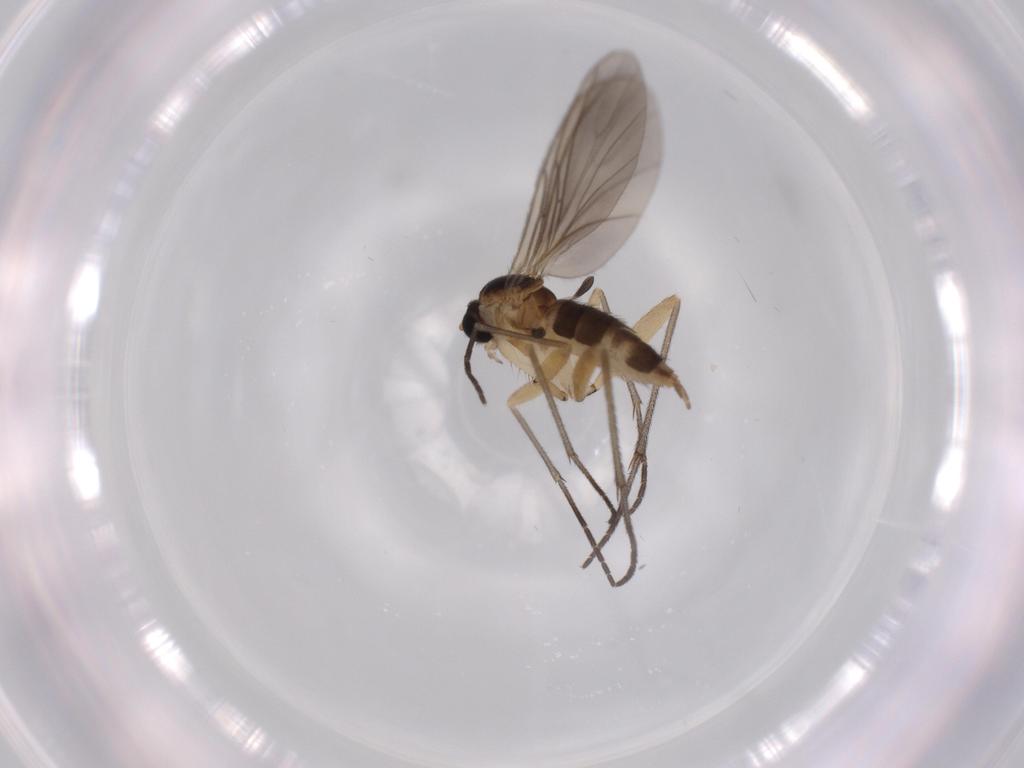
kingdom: Animalia
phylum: Arthropoda
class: Insecta
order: Diptera
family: Sciaridae
